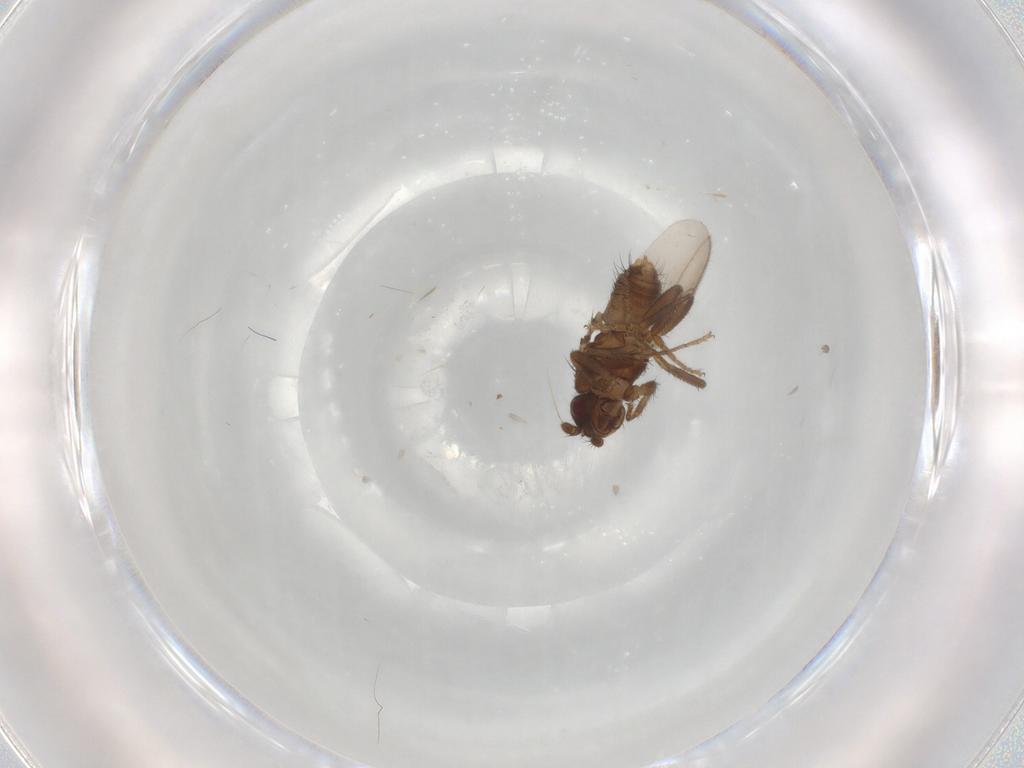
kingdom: Animalia
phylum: Arthropoda
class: Insecta
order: Diptera
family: Sphaeroceridae
